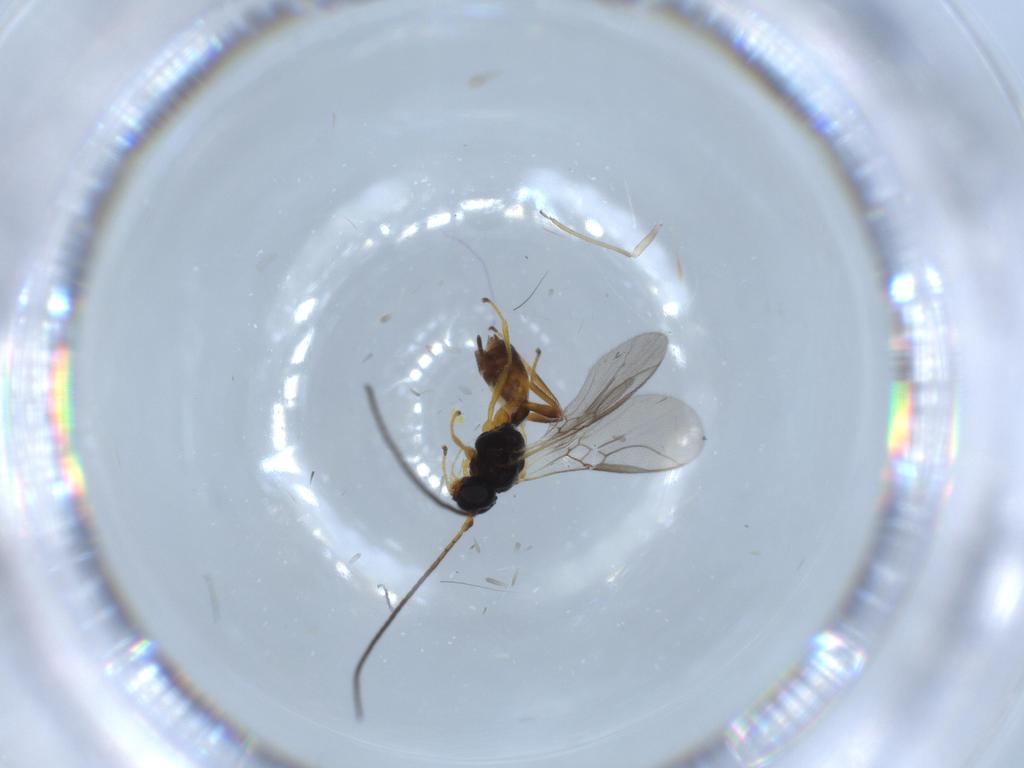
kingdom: Animalia
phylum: Arthropoda
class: Insecta
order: Hymenoptera
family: Braconidae
